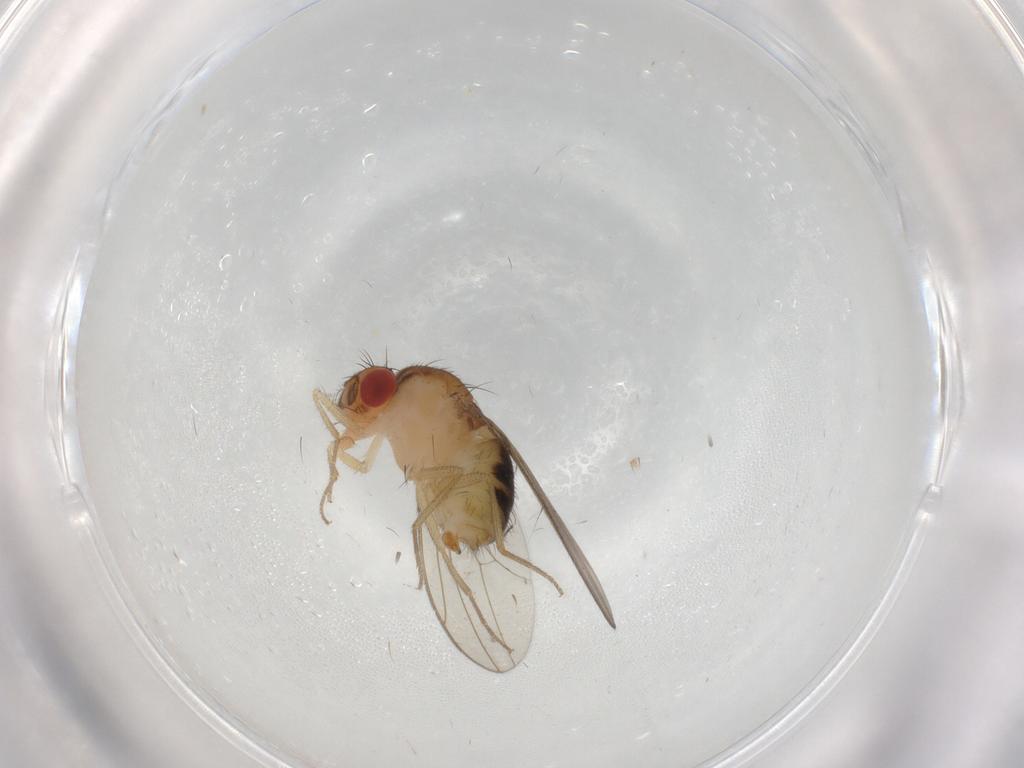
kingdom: Animalia
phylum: Arthropoda
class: Insecta
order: Diptera
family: Drosophilidae
